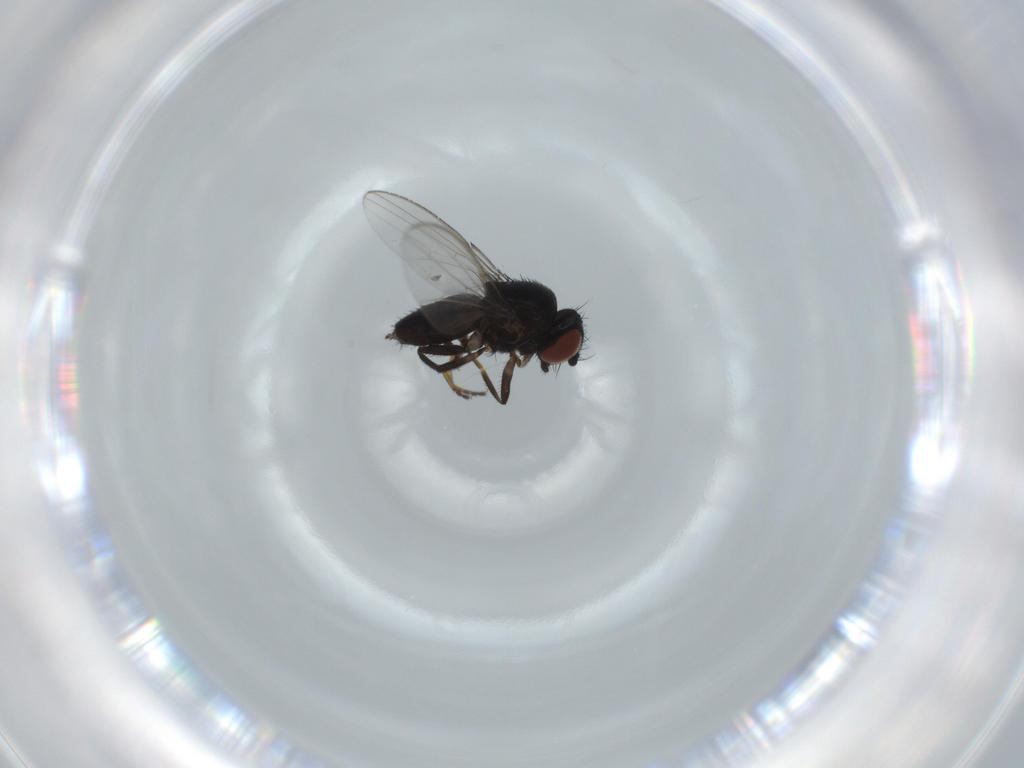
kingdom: Animalia
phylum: Arthropoda
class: Insecta
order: Diptera
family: Milichiidae
